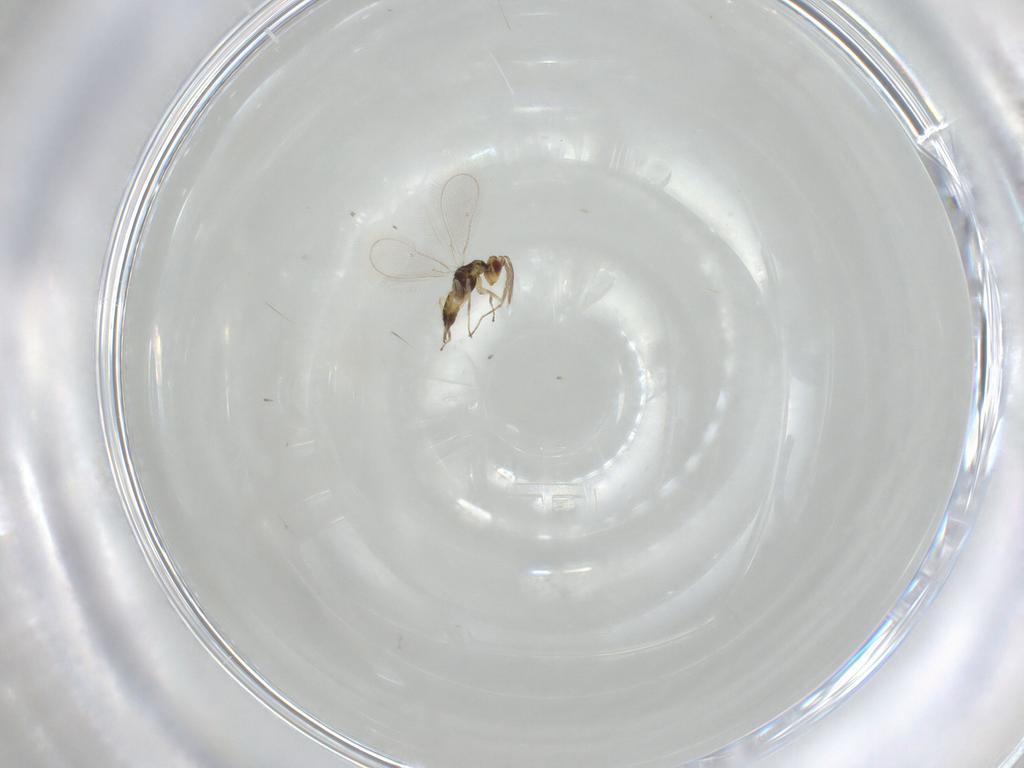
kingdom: Animalia
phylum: Arthropoda
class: Insecta
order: Hymenoptera
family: Eulophidae
